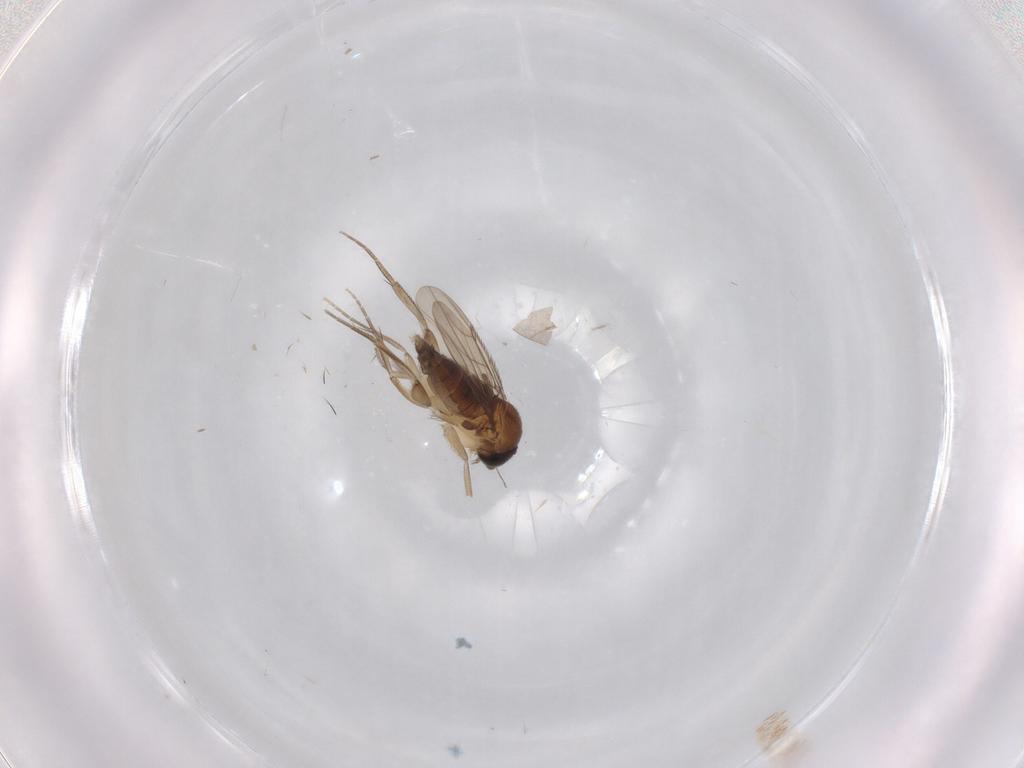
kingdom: Animalia
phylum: Arthropoda
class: Insecta
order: Diptera
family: Phoridae
